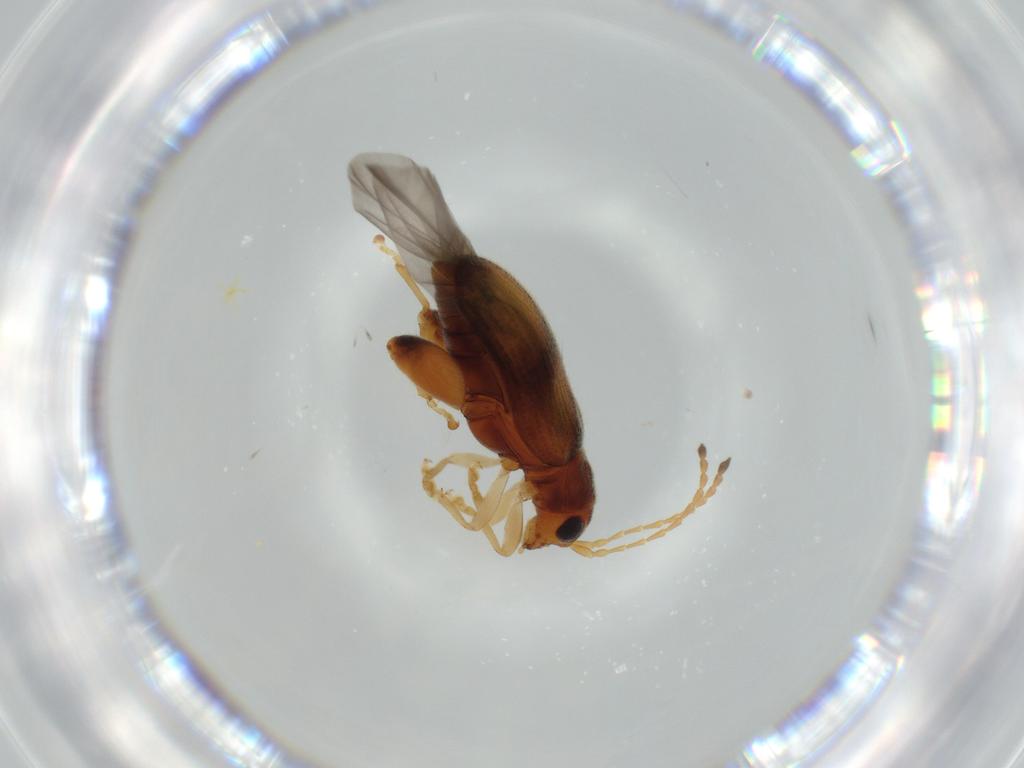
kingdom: Animalia
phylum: Arthropoda
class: Insecta
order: Coleoptera
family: Chrysomelidae
